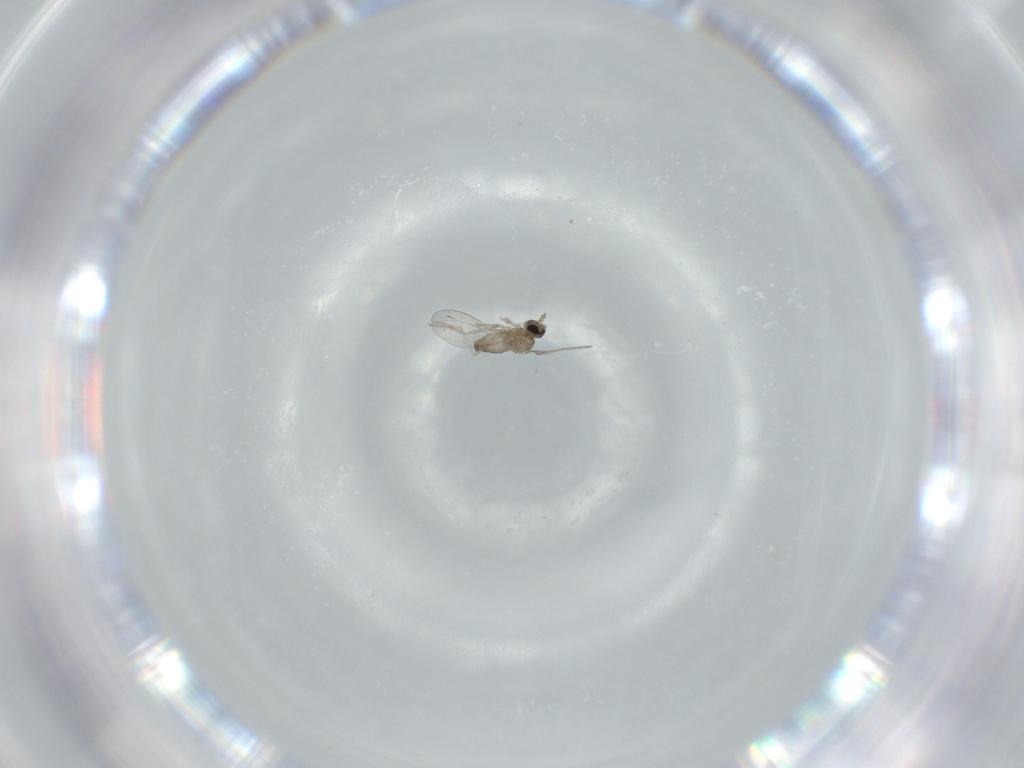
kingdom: Animalia
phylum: Arthropoda
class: Insecta
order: Diptera
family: Cecidomyiidae
